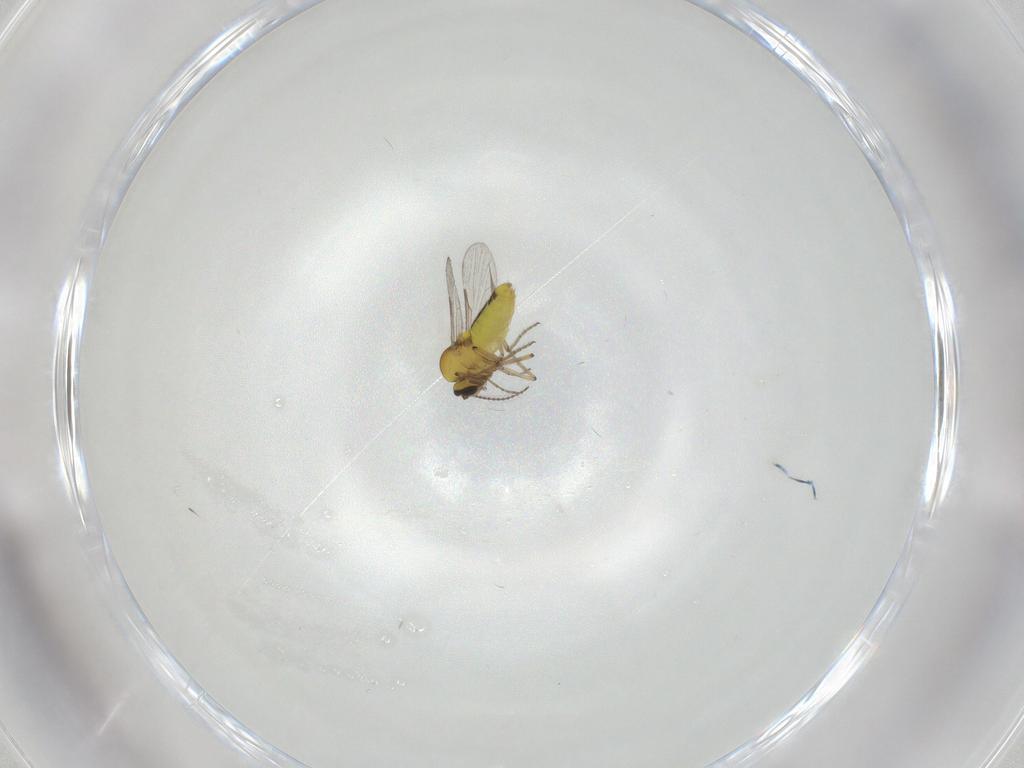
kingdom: Animalia
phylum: Arthropoda
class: Insecta
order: Diptera
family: Ceratopogonidae
